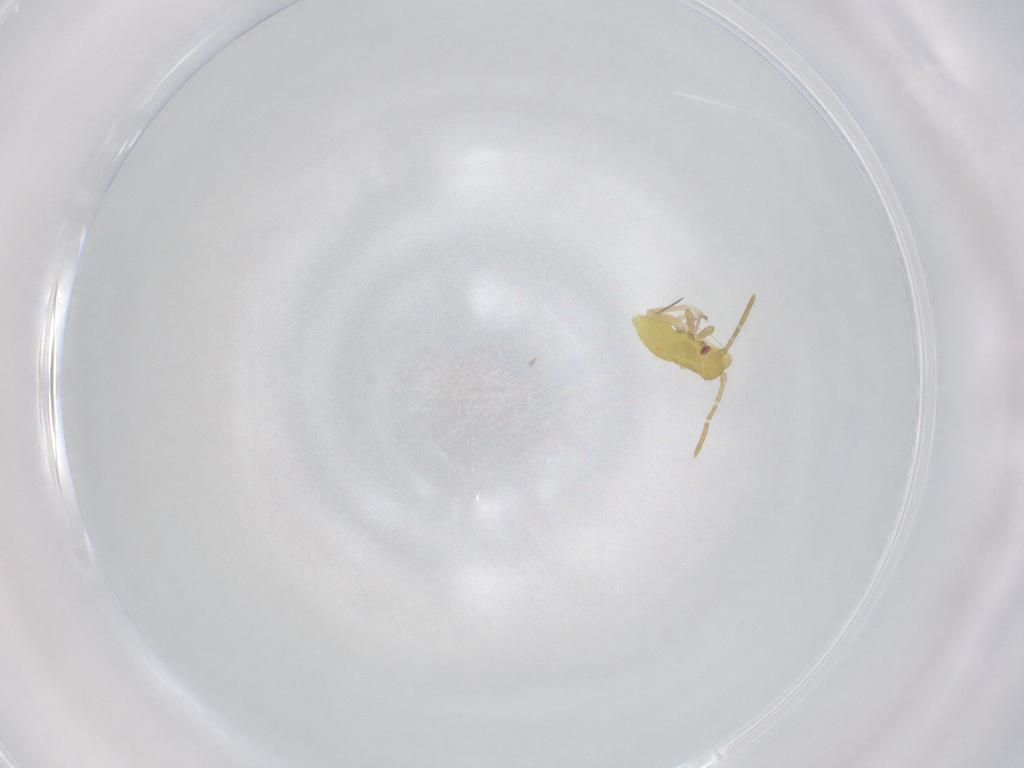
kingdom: Animalia
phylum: Arthropoda
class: Insecta
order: Hemiptera
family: Miridae
